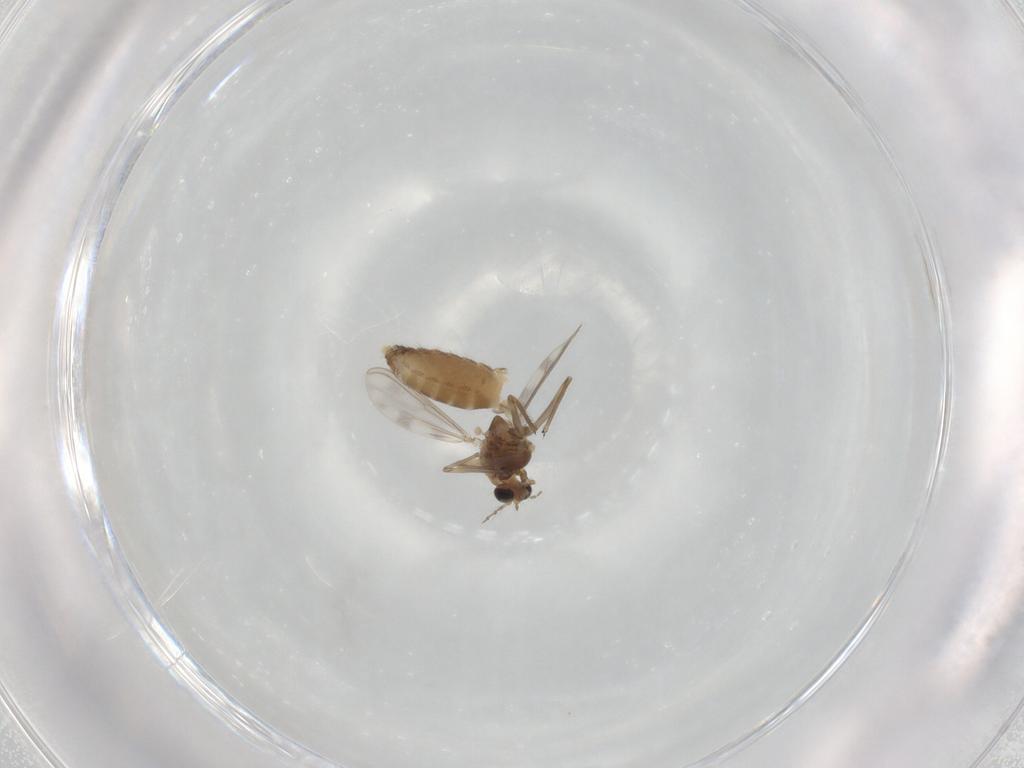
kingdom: Animalia
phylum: Arthropoda
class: Insecta
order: Diptera
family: Chironomidae
